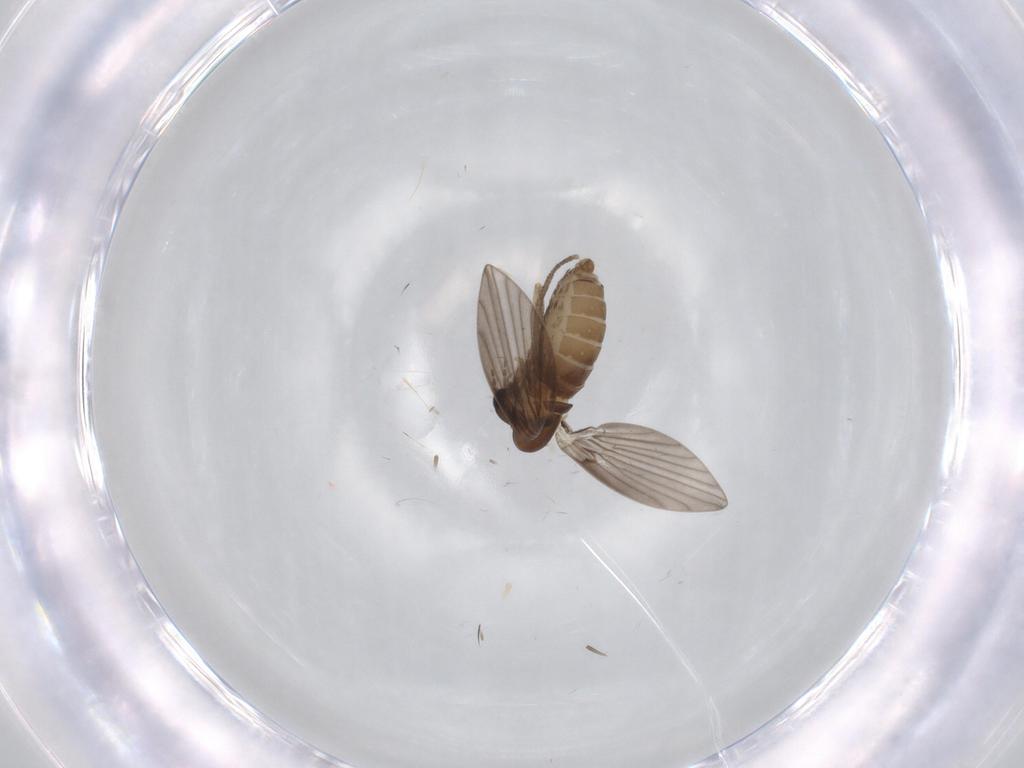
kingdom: Animalia
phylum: Arthropoda
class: Insecta
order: Diptera
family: Psychodidae
